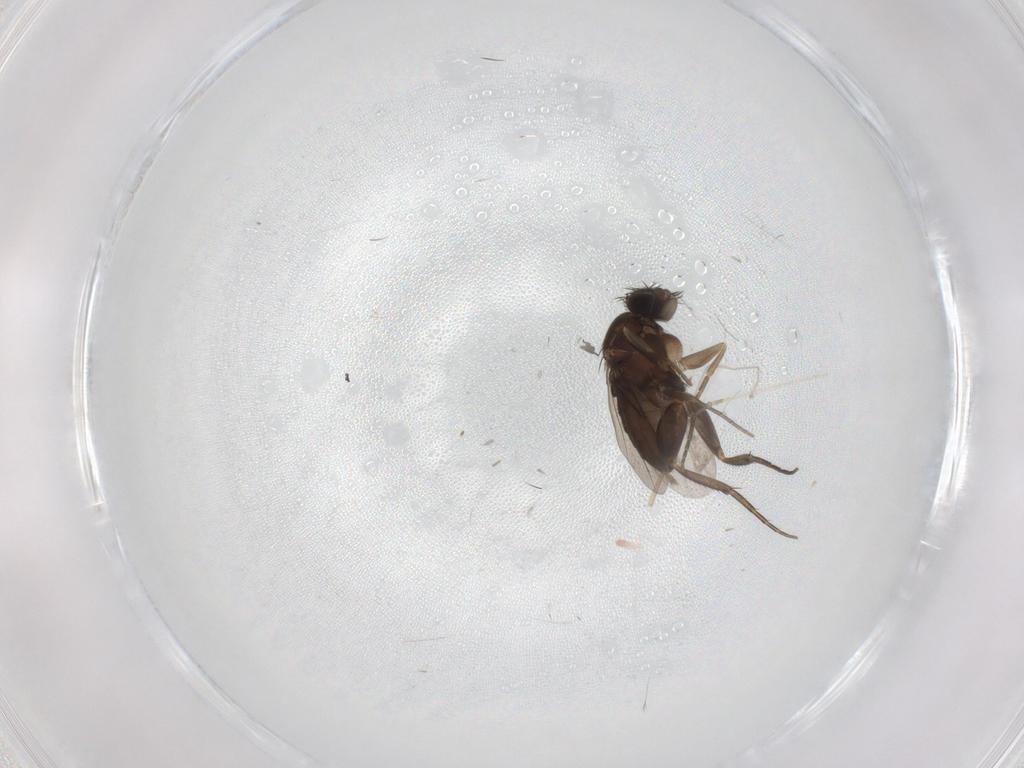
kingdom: Animalia
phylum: Arthropoda
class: Insecta
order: Diptera
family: Phoridae
